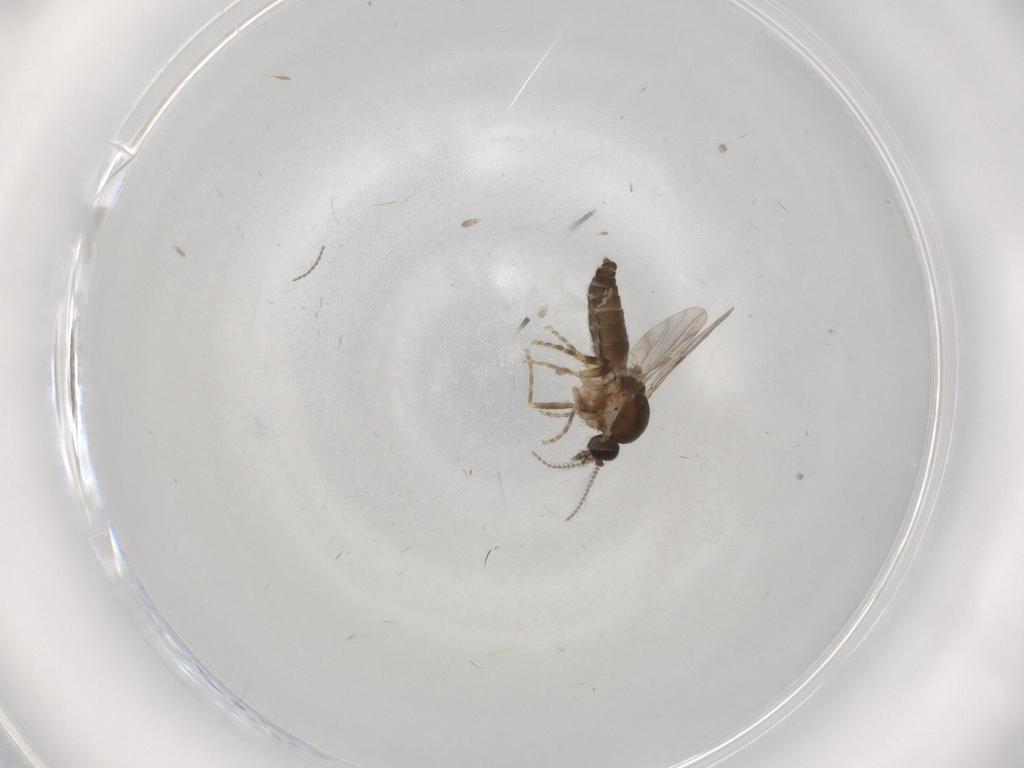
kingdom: Animalia
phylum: Arthropoda
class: Insecta
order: Diptera
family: Ceratopogonidae
